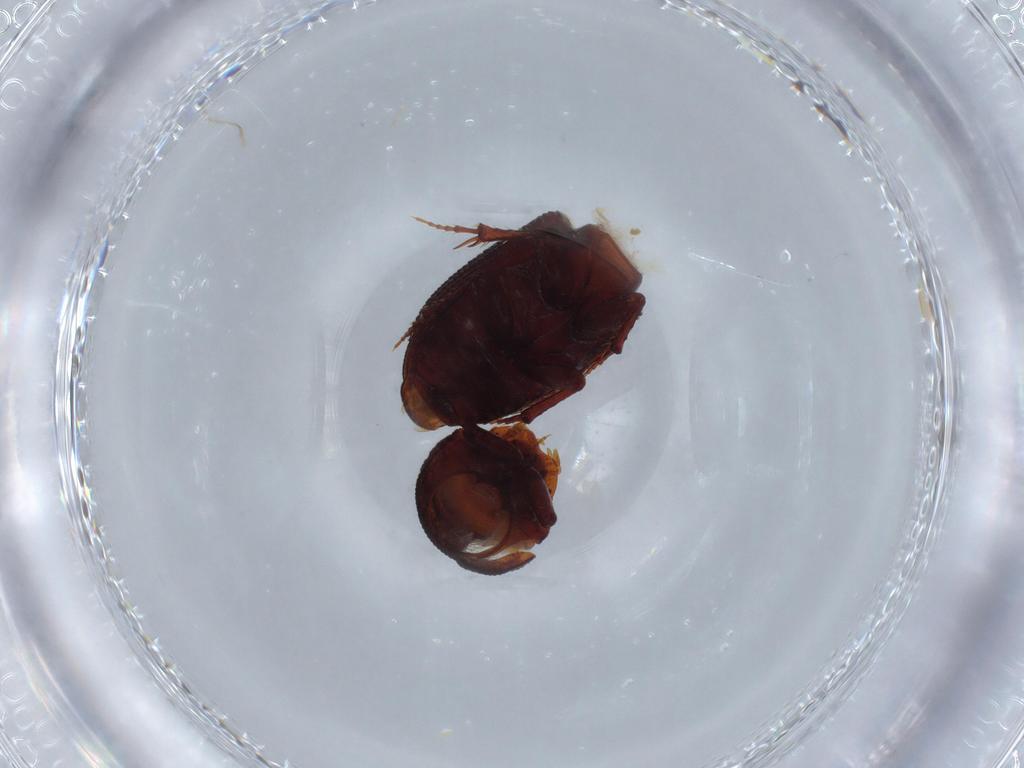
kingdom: Animalia
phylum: Arthropoda
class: Insecta
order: Coleoptera
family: Scarabaeidae
